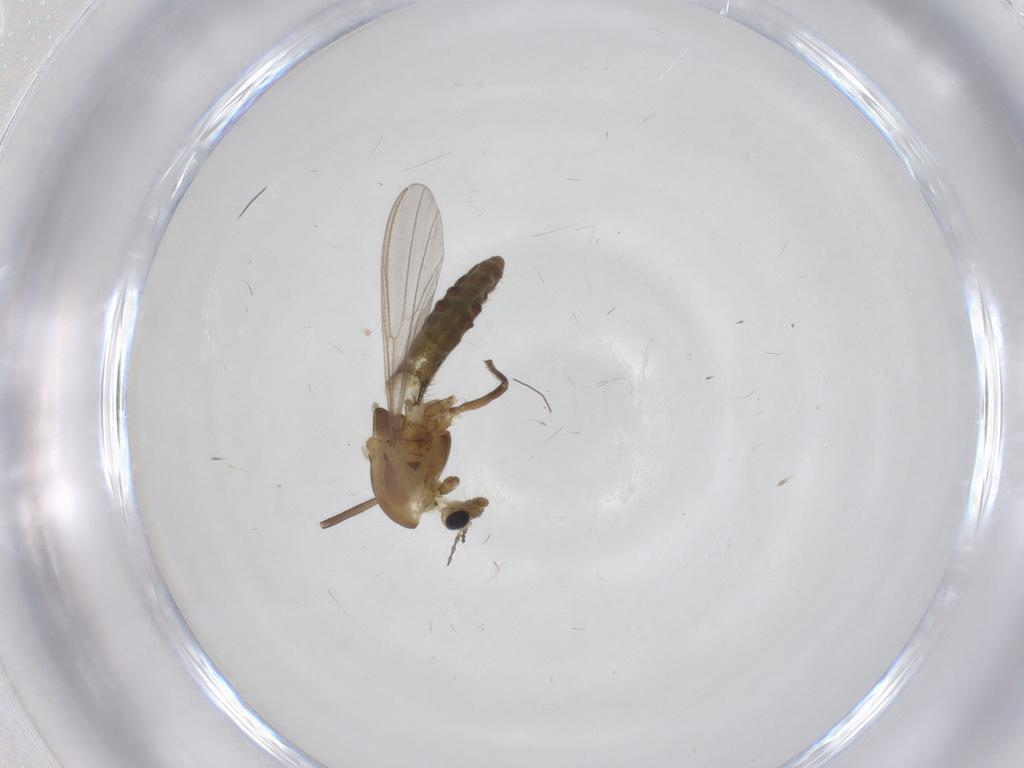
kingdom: Animalia
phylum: Arthropoda
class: Insecta
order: Diptera
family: Chironomidae
